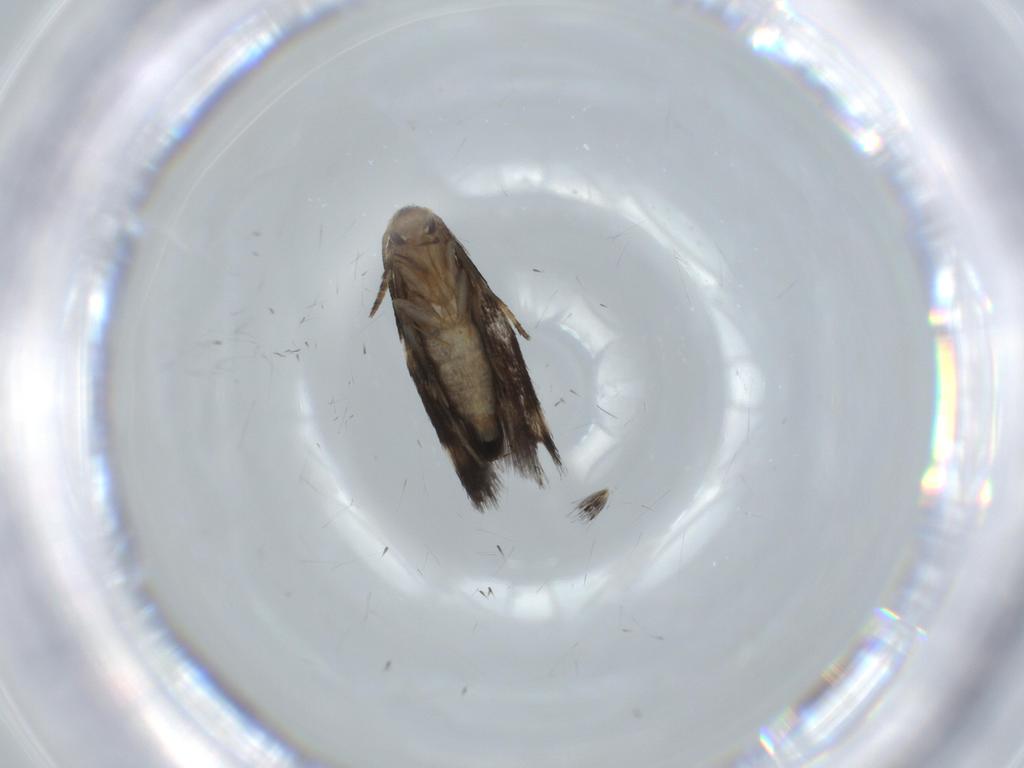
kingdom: Animalia
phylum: Arthropoda
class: Insecta
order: Lepidoptera
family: Cosmopterigidae
